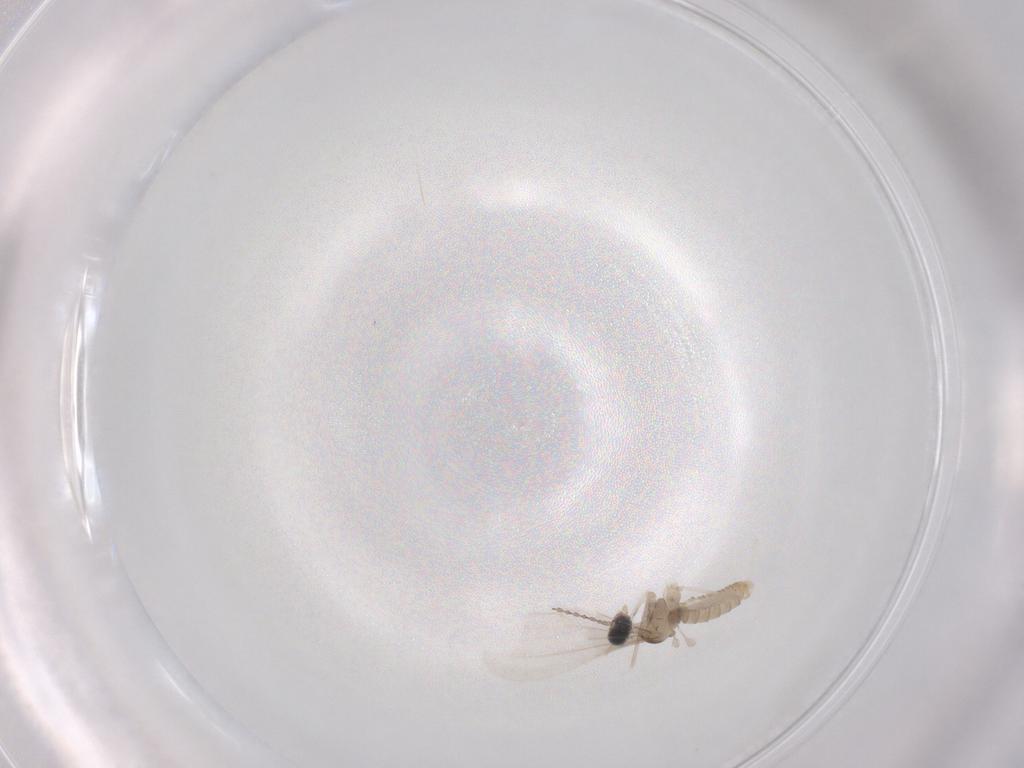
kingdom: Animalia
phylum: Arthropoda
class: Insecta
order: Diptera
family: Cecidomyiidae
